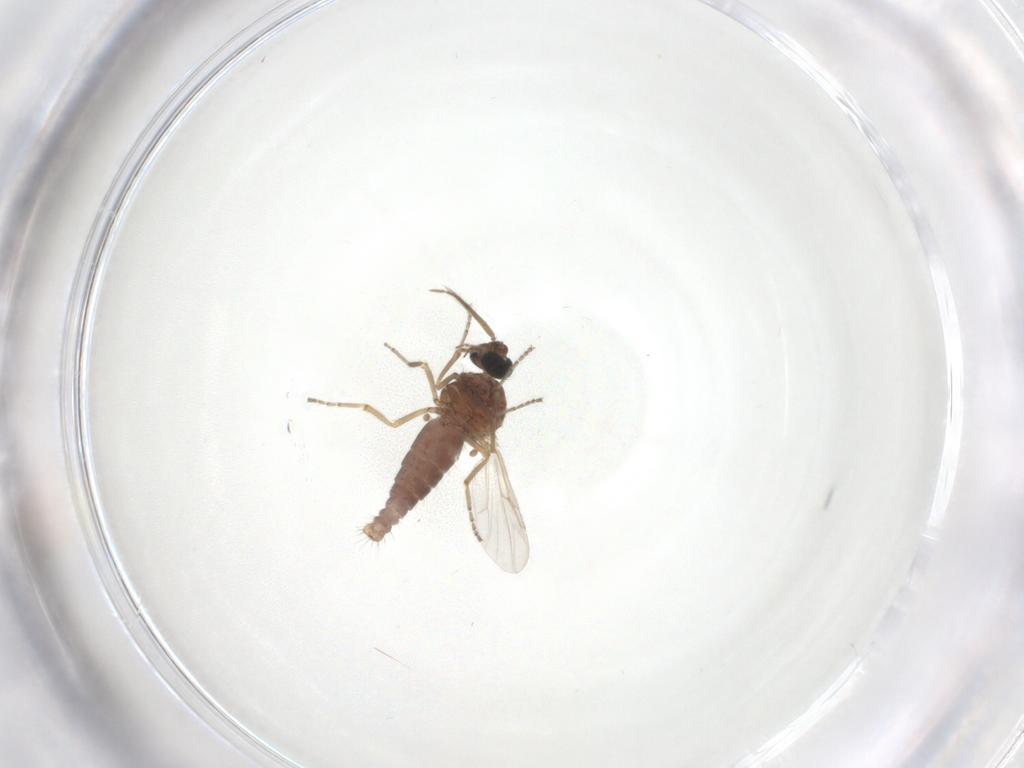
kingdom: Animalia
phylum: Arthropoda
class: Insecta
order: Diptera
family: Ceratopogonidae
